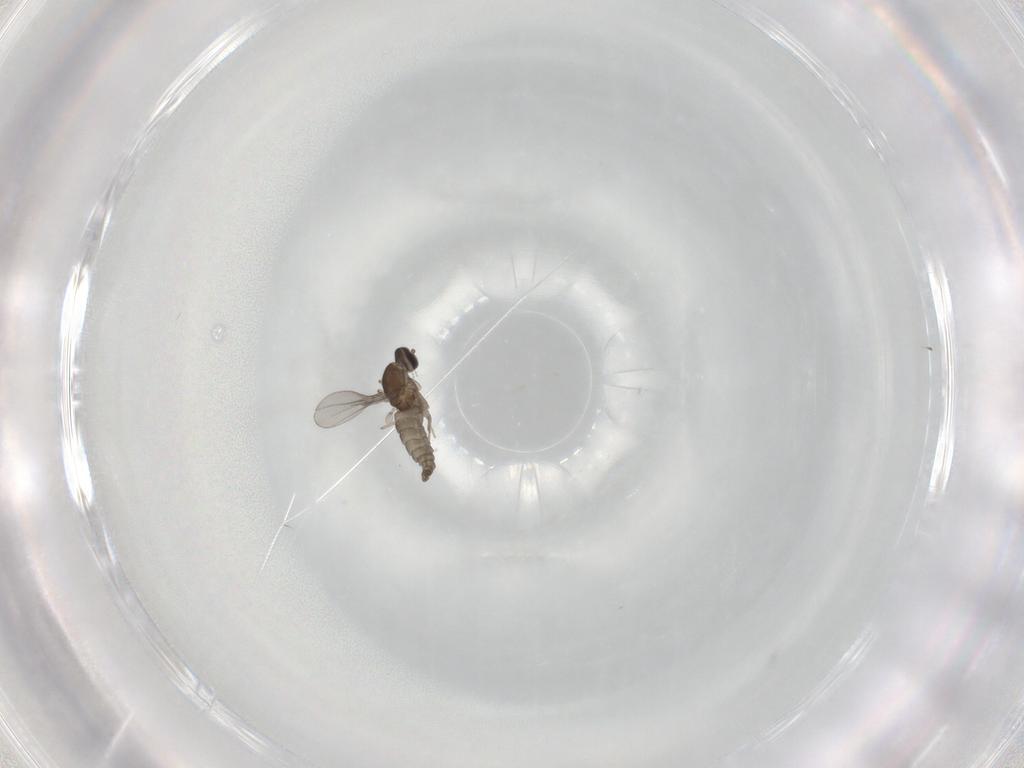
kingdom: Animalia
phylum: Arthropoda
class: Insecta
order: Diptera
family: Cecidomyiidae
